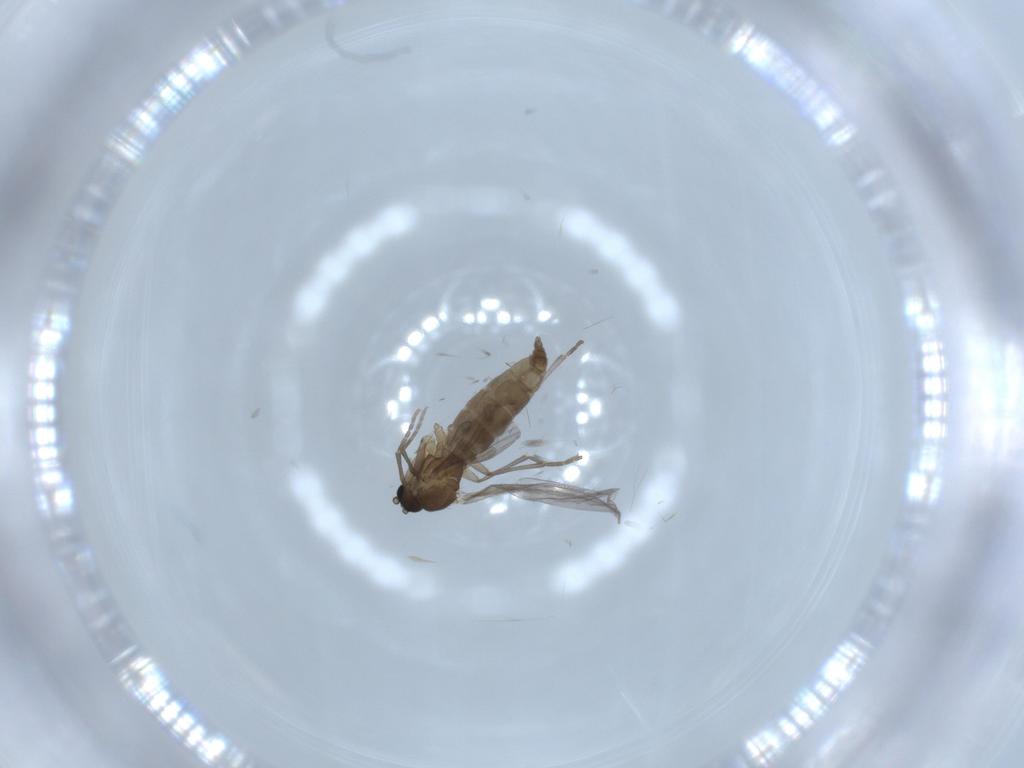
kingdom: Animalia
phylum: Arthropoda
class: Insecta
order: Diptera
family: Sciaridae
